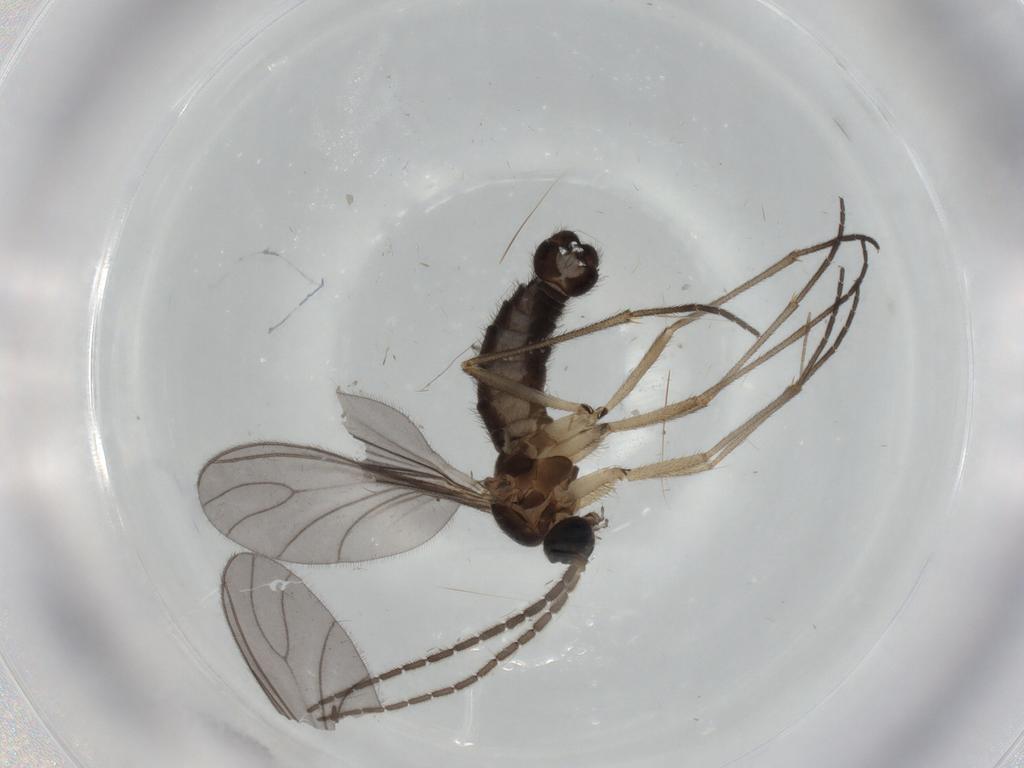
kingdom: Animalia
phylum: Arthropoda
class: Insecta
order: Diptera
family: Sciaridae
